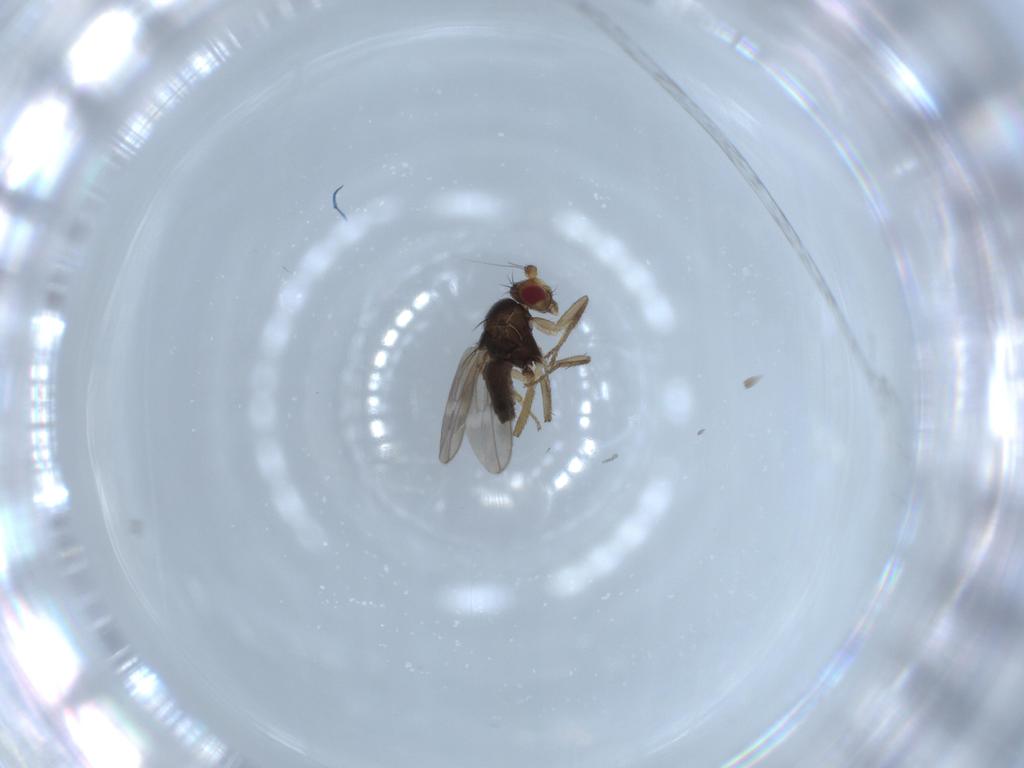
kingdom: Animalia
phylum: Arthropoda
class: Insecta
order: Diptera
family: Sphaeroceridae
